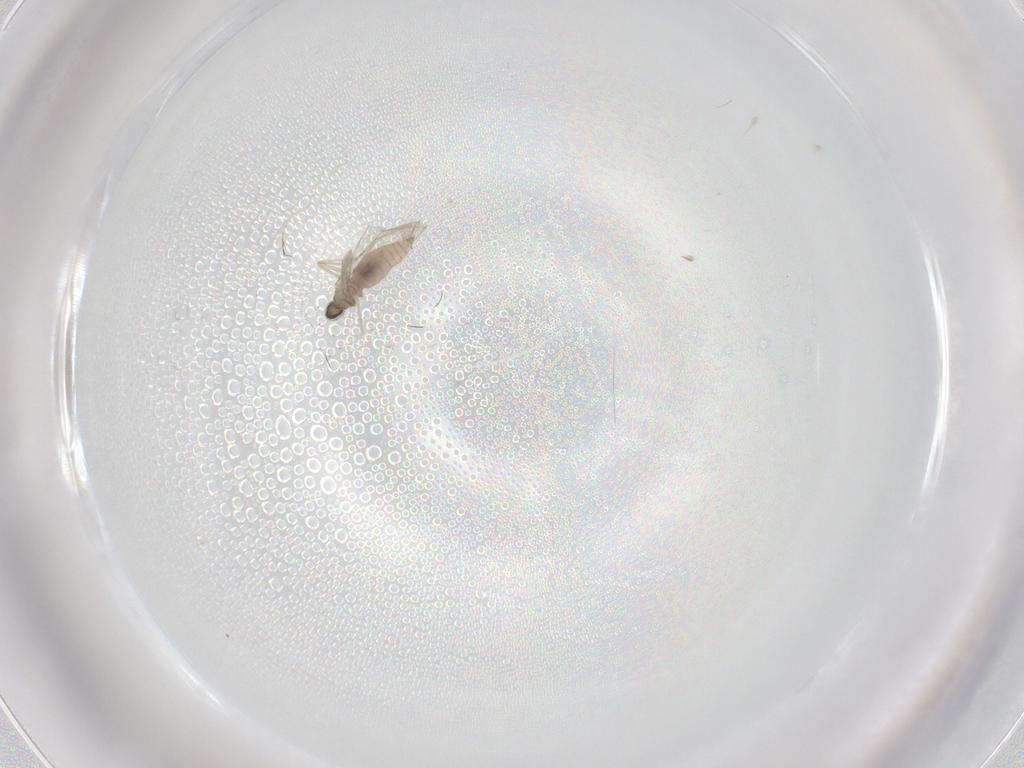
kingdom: Animalia
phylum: Arthropoda
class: Insecta
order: Diptera
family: Cecidomyiidae
